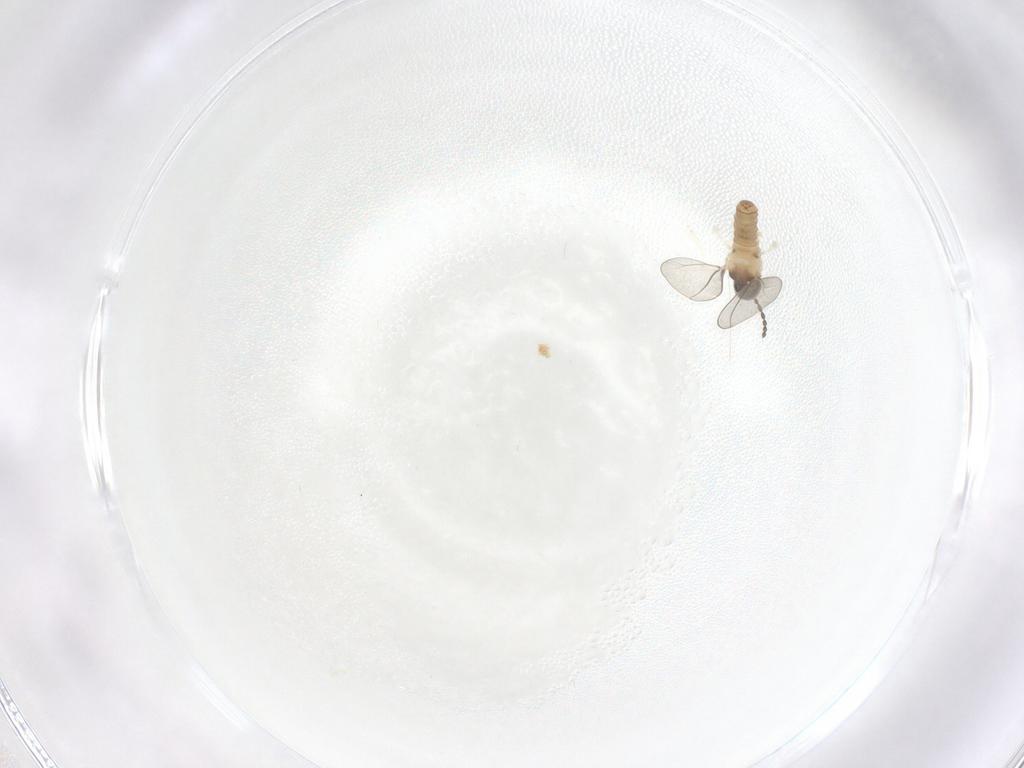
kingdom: Animalia
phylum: Arthropoda
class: Insecta
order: Diptera
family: Cecidomyiidae
